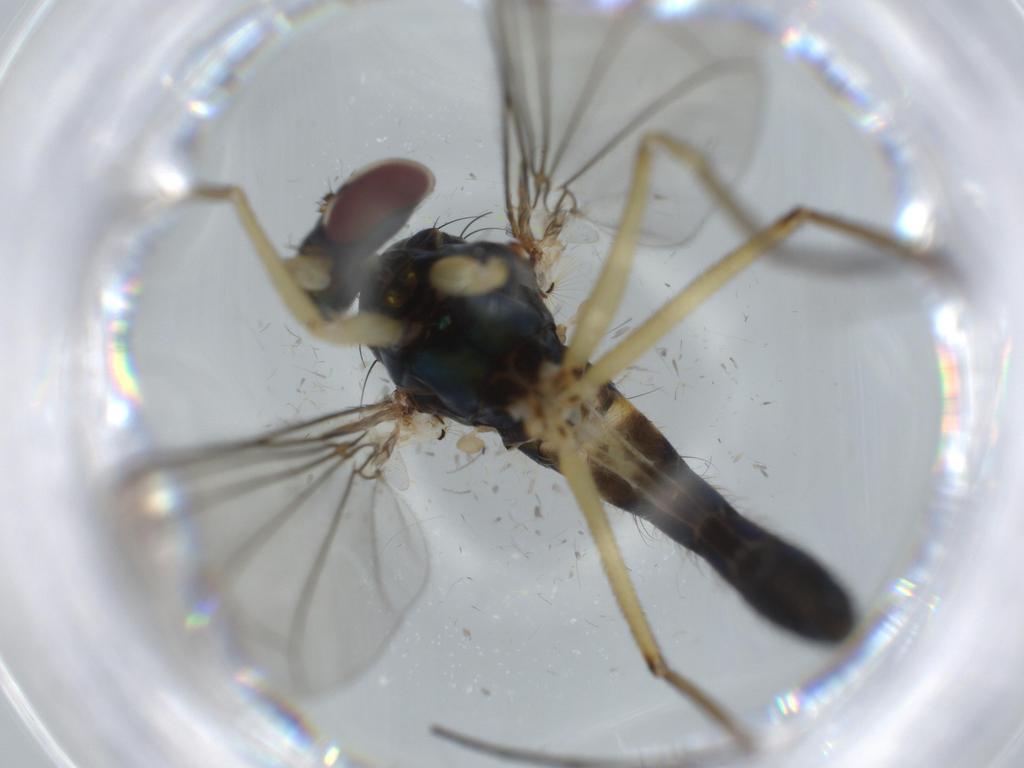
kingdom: Animalia
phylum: Arthropoda
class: Insecta
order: Diptera
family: Dolichopodidae
